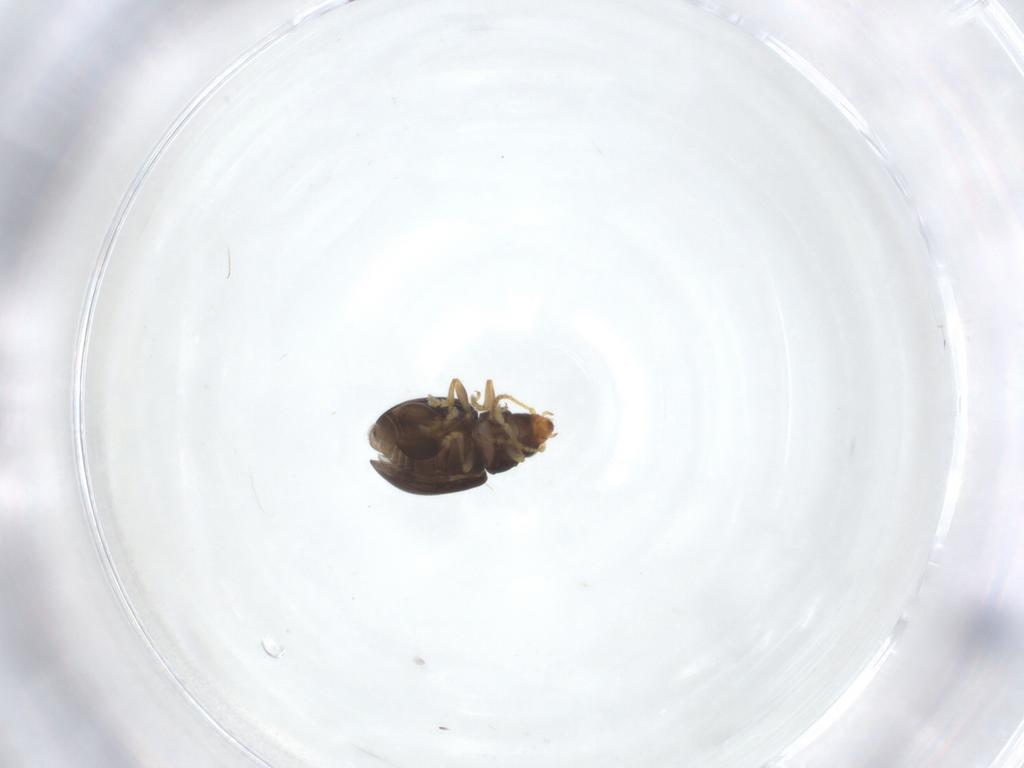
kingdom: Animalia
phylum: Arthropoda
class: Insecta
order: Coleoptera
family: Chrysomelidae
